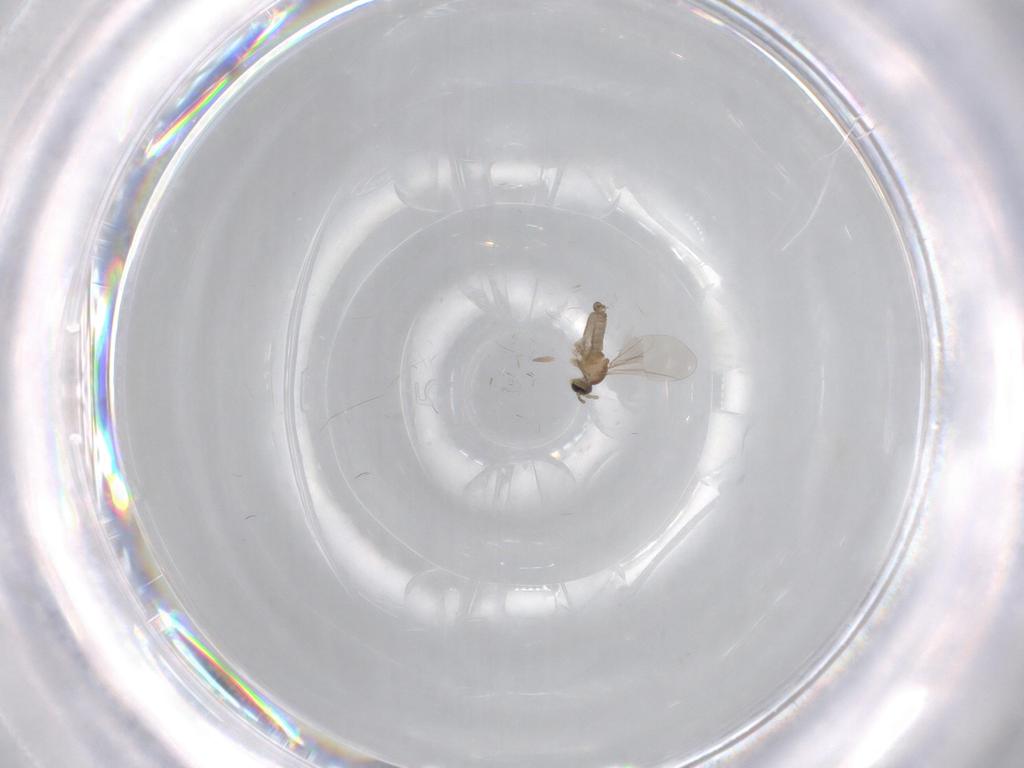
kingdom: Animalia
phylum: Arthropoda
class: Insecta
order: Diptera
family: Cecidomyiidae
